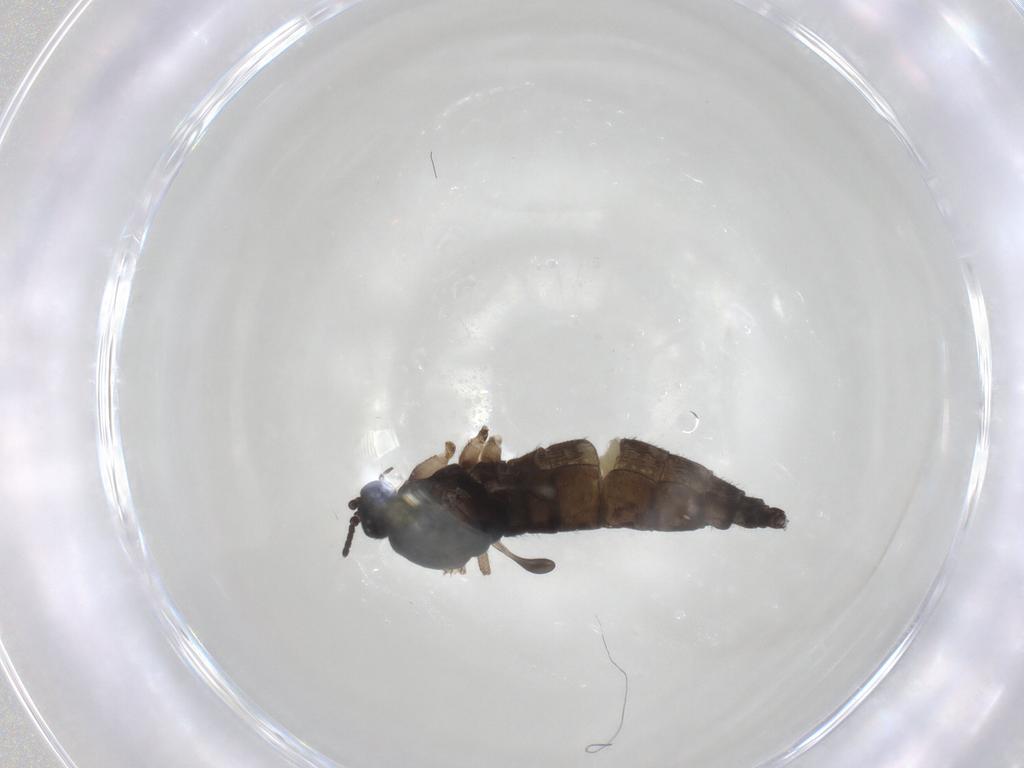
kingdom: Animalia
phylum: Arthropoda
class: Insecta
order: Diptera
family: Sciaridae
